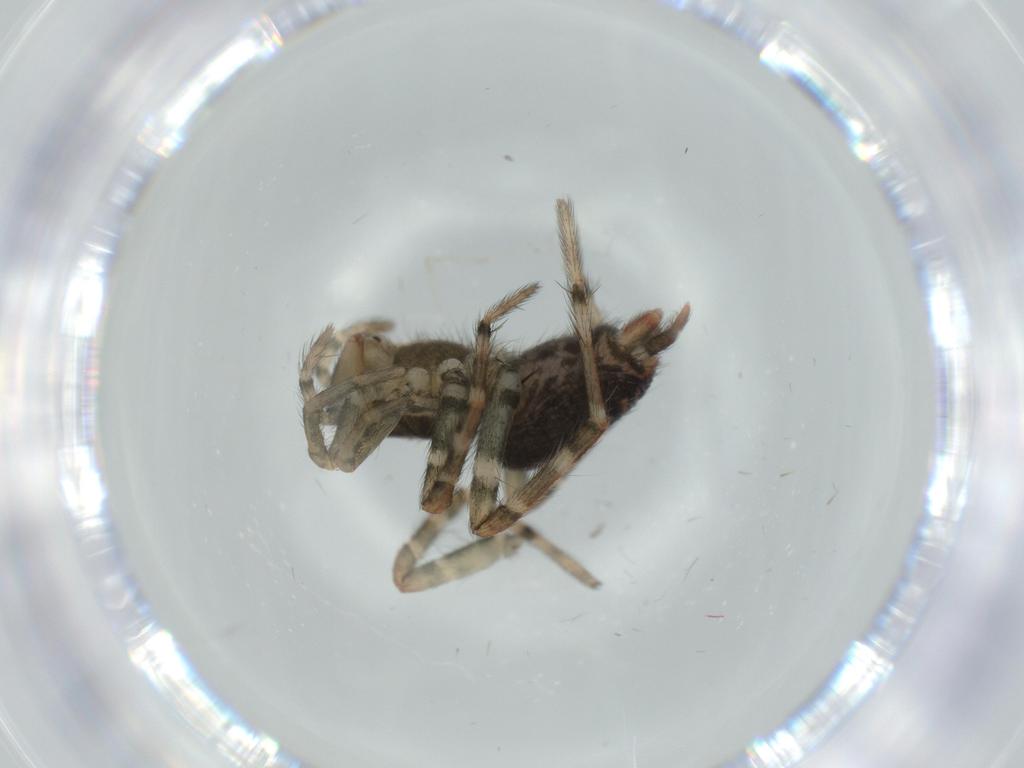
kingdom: Animalia
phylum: Arthropoda
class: Arachnida
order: Araneae
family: Agelenidae
